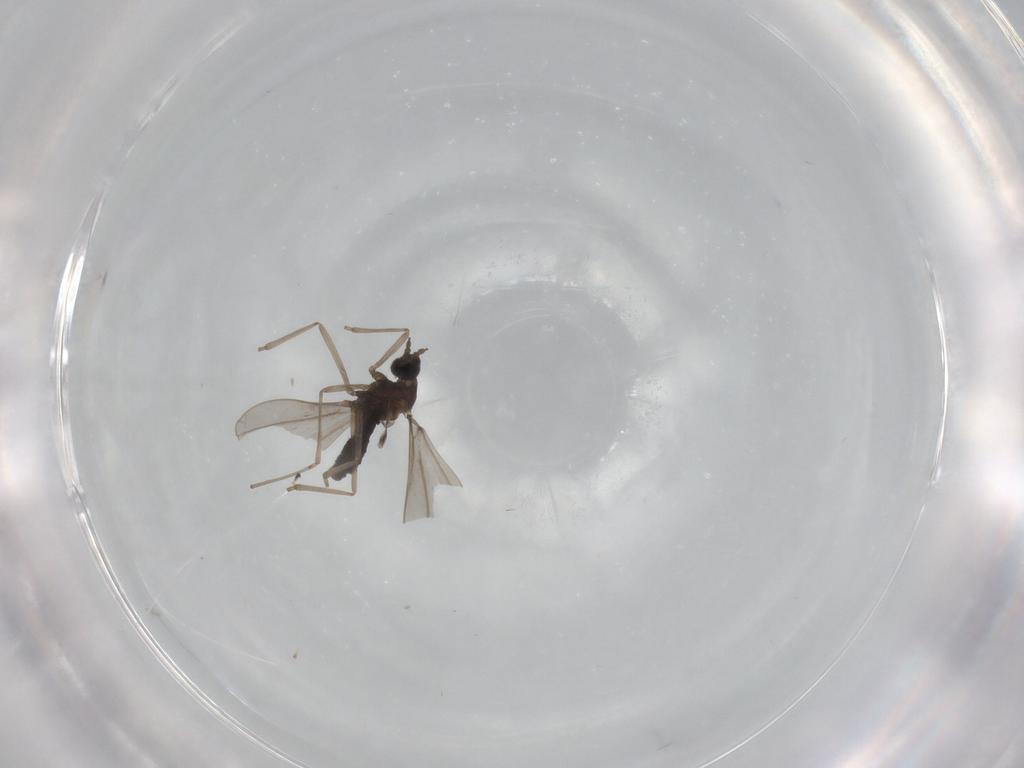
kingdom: Animalia
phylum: Arthropoda
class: Insecta
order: Diptera
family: Cecidomyiidae
